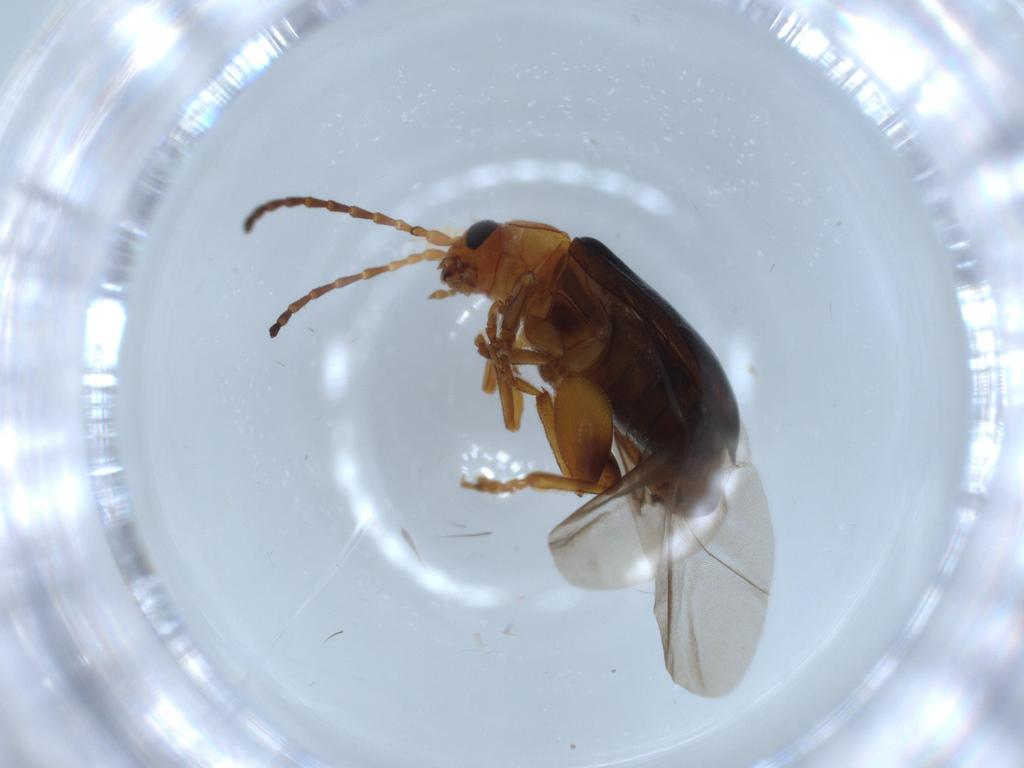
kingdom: Animalia
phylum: Arthropoda
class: Insecta
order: Coleoptera
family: Chrysomelidae
